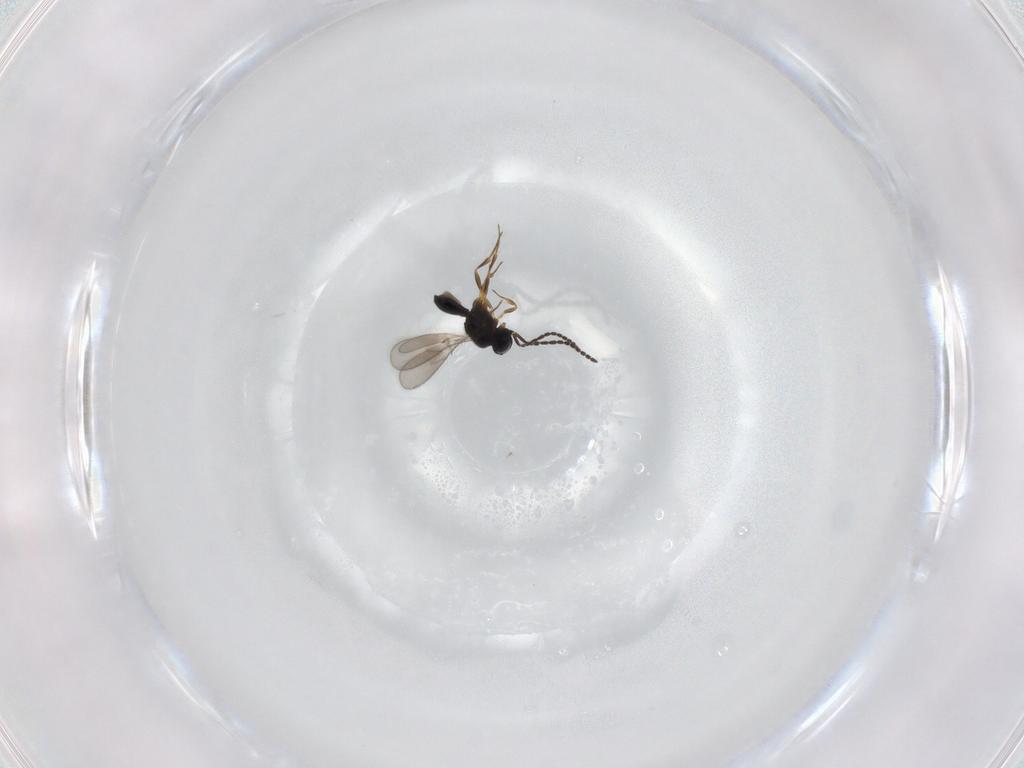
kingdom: Animalia
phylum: Arthropoda
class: Insecta
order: Hymenoptera
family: Scelionidae
